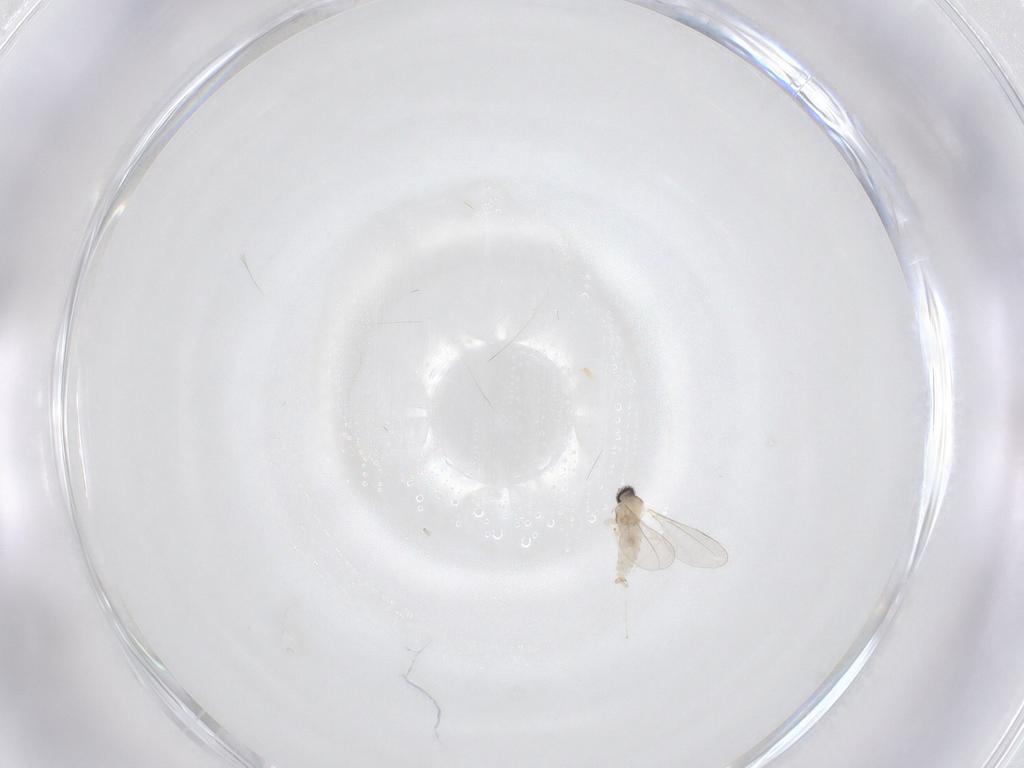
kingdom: Animalia
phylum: Arthropoda
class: Insecta
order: Diptera
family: Cecidomyiidae
